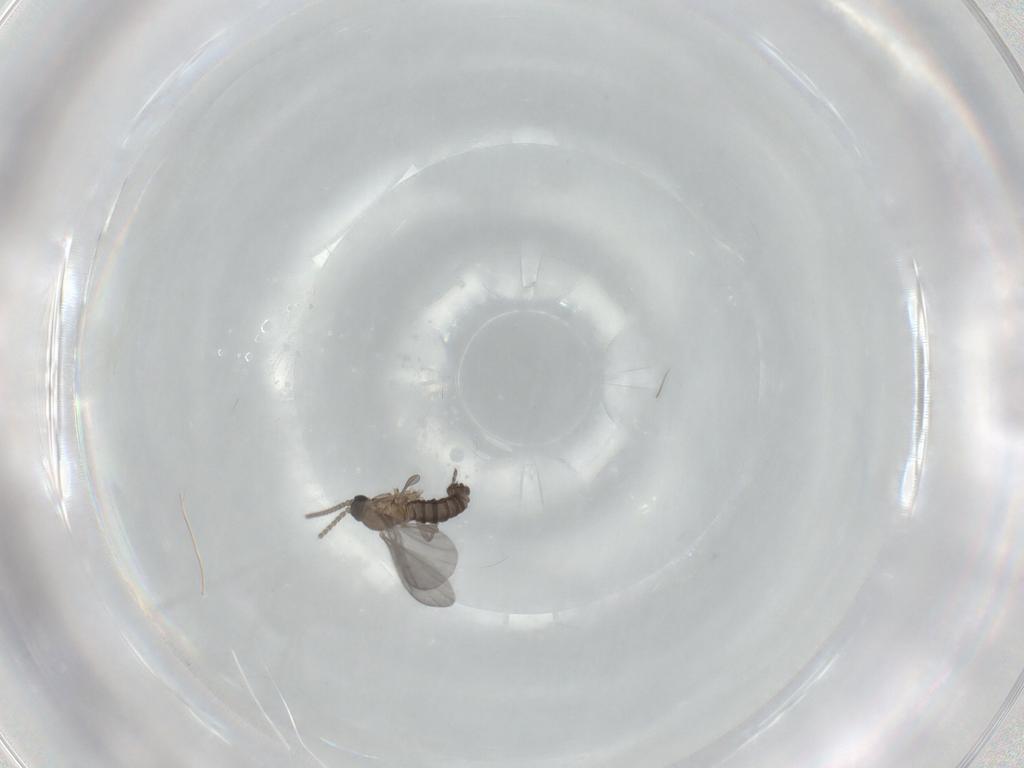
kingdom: Animalia
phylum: Arthropoda
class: Insecta
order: Diptera
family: Sciaridae
